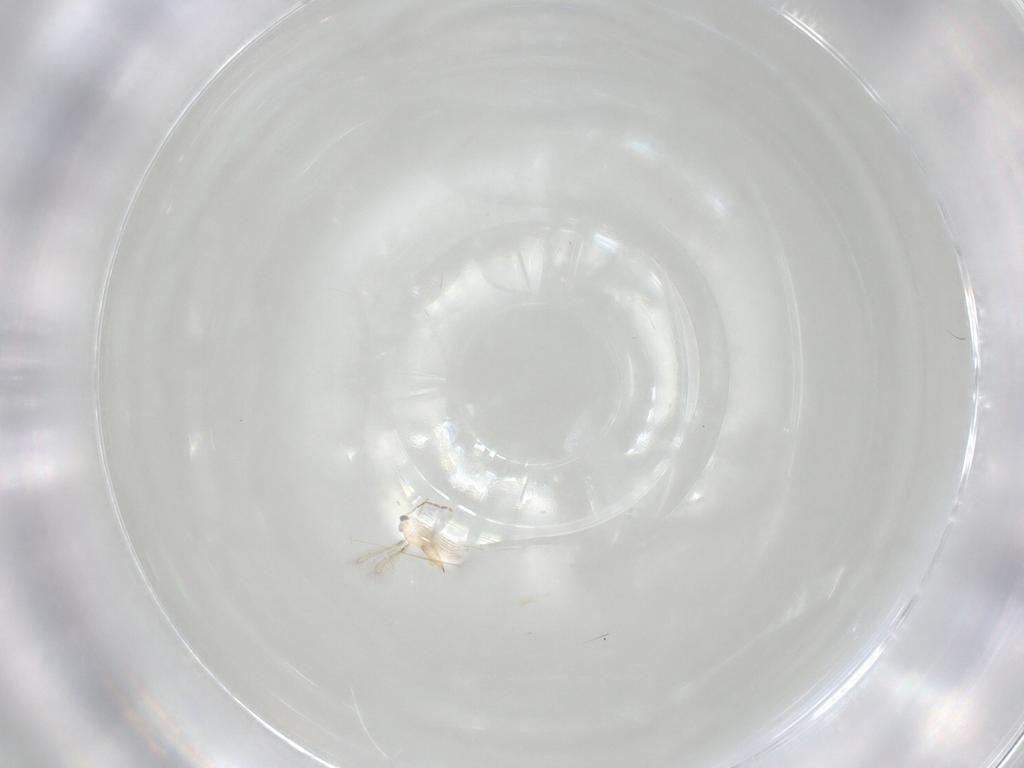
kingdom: Animalia
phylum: Arthropoda
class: Insecta
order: Hymenoptera
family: Mymaridae
